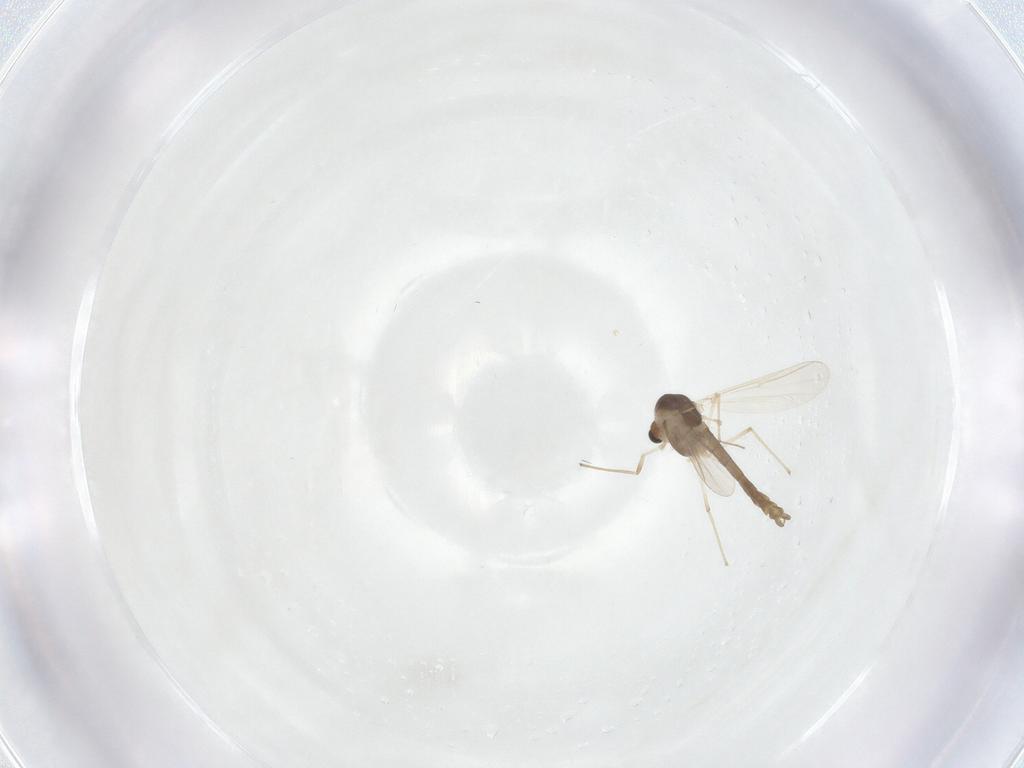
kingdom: Animalia
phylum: Arthropoda
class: Insecta
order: Diptera
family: Chironomidae
